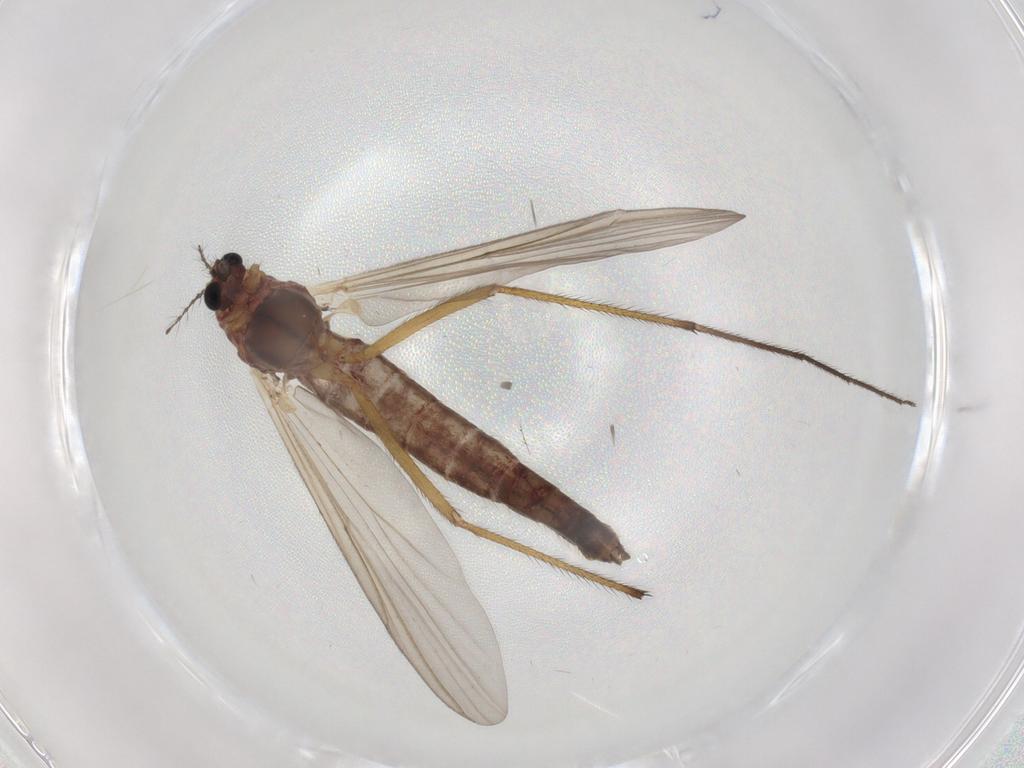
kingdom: Animalia
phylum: Arthropoda
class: Insecta
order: Diptera
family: Chironomidae
